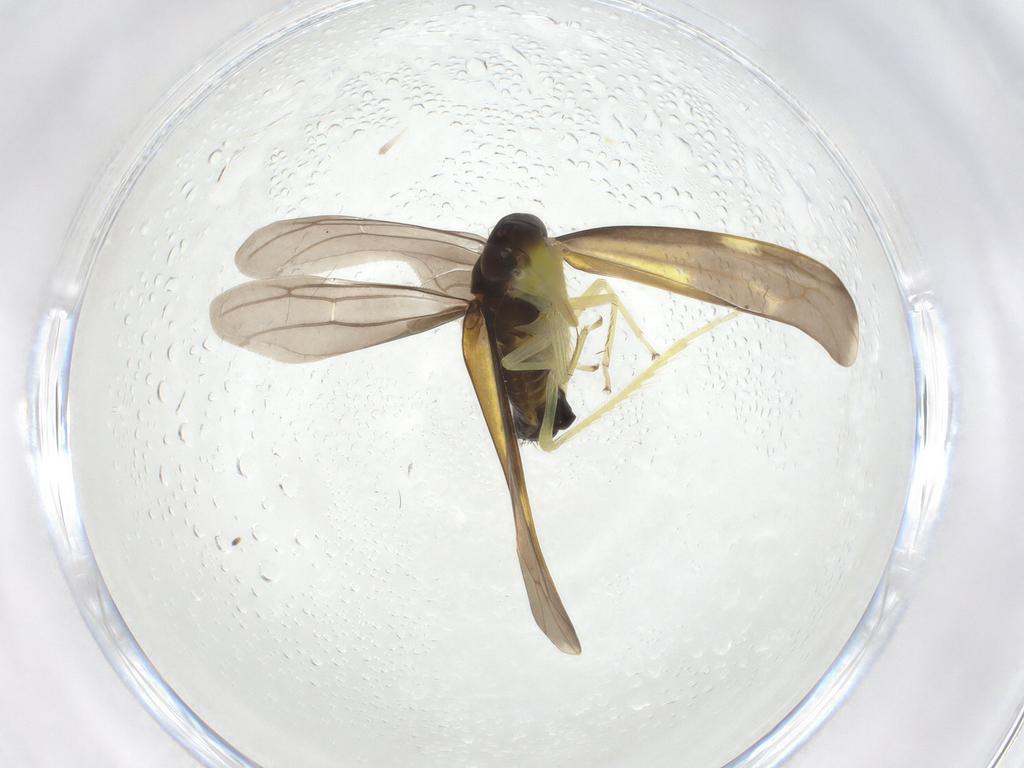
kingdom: Animalia
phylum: Arthropoda
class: Insecta
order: Hemiptera
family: Cicadellidae
